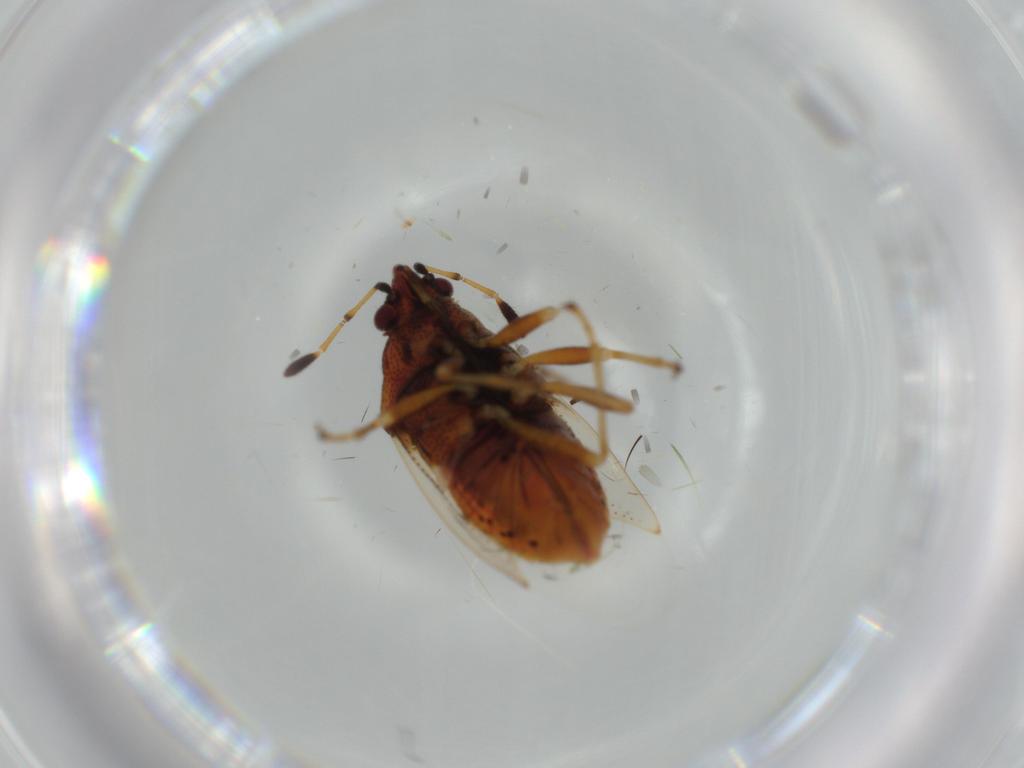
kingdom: Animalia
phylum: Arthropoda
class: Insecta
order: Hemiptera
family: Lygaeidae
